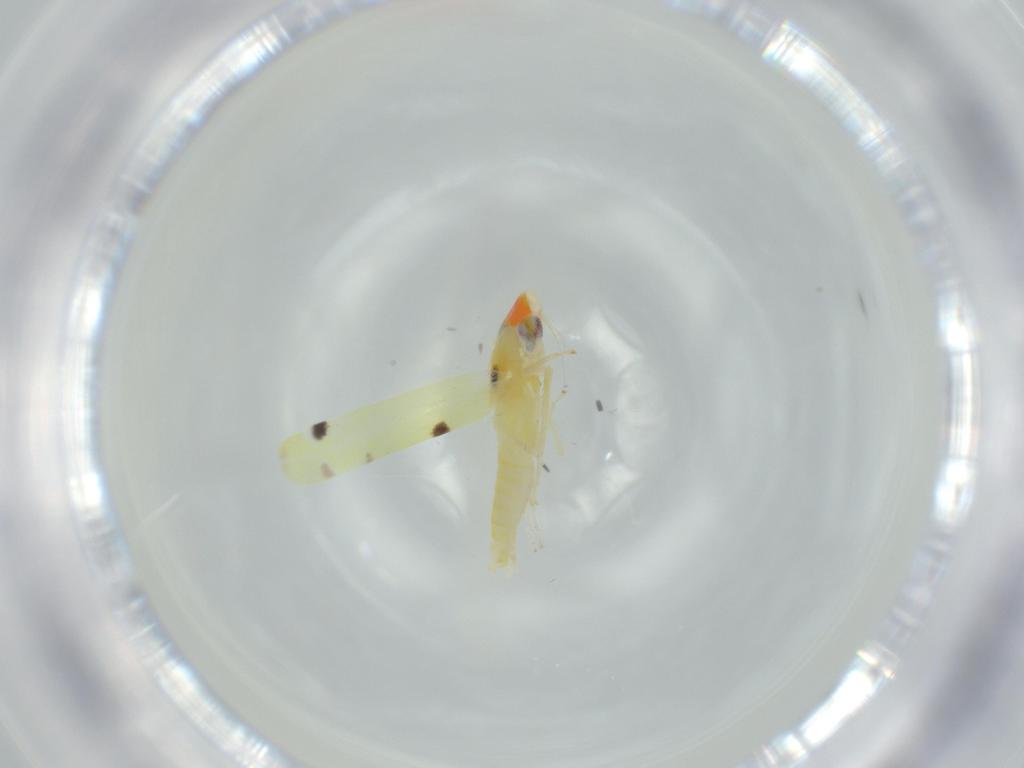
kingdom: Animalia
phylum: Arthropoda
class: Insecta
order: Hemiptera
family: Cicadellidae
